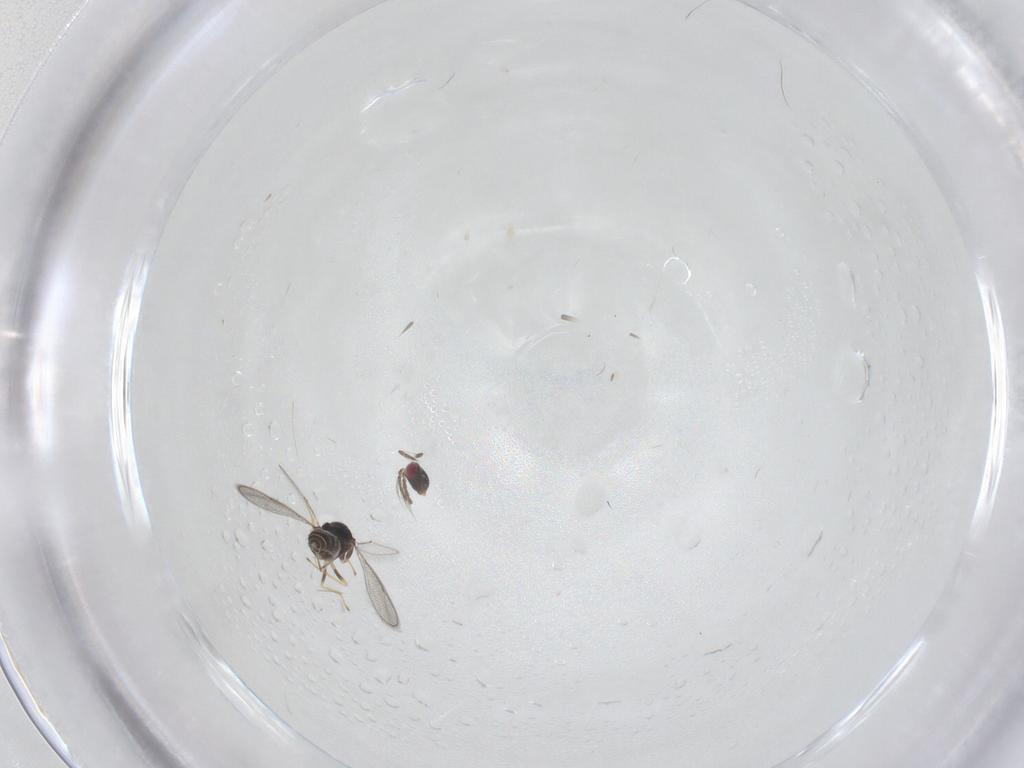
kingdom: Animalia
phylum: Arthropoda
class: Insecta
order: Hymenoptera
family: Eulophidae
